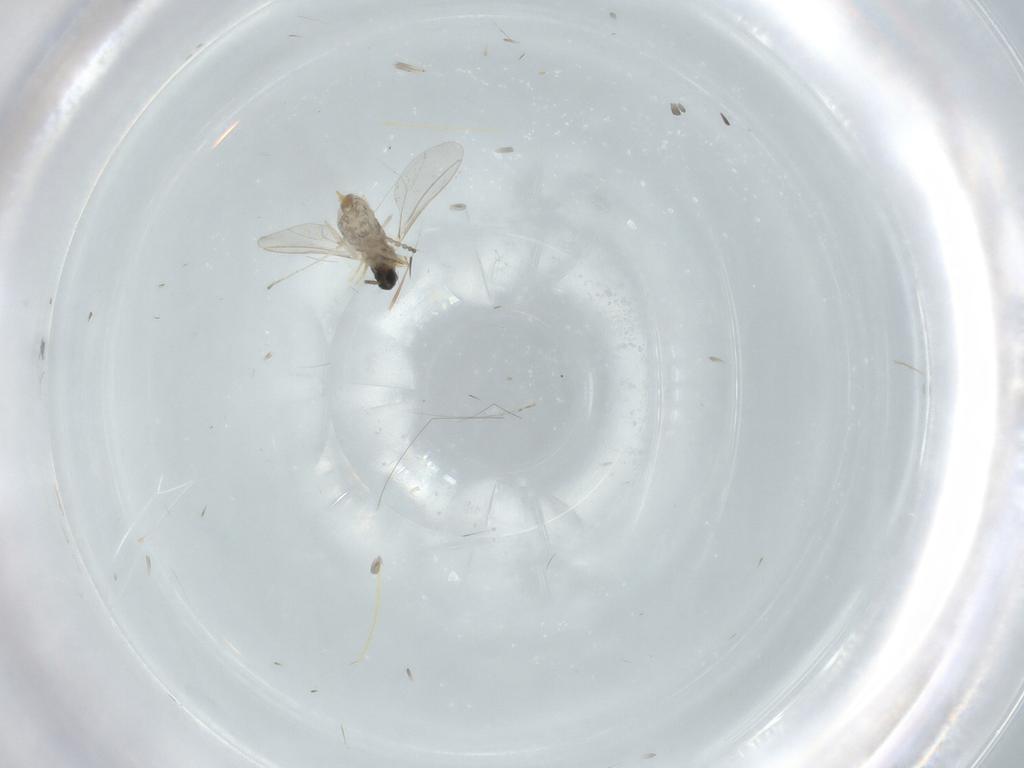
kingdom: Animalia
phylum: Arthropoda
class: Insecta
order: Diptera
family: Cecidomyiidae
